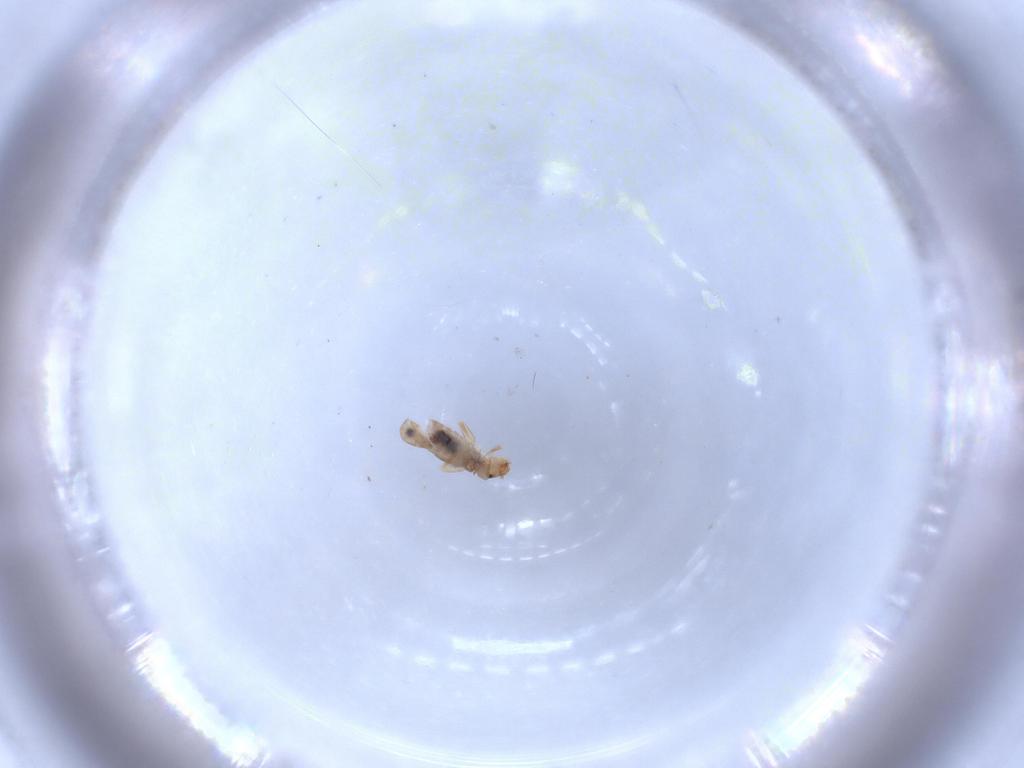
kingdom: Animalia
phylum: Arthropoda
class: Insecta
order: Psocodea
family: Liposcelididae
